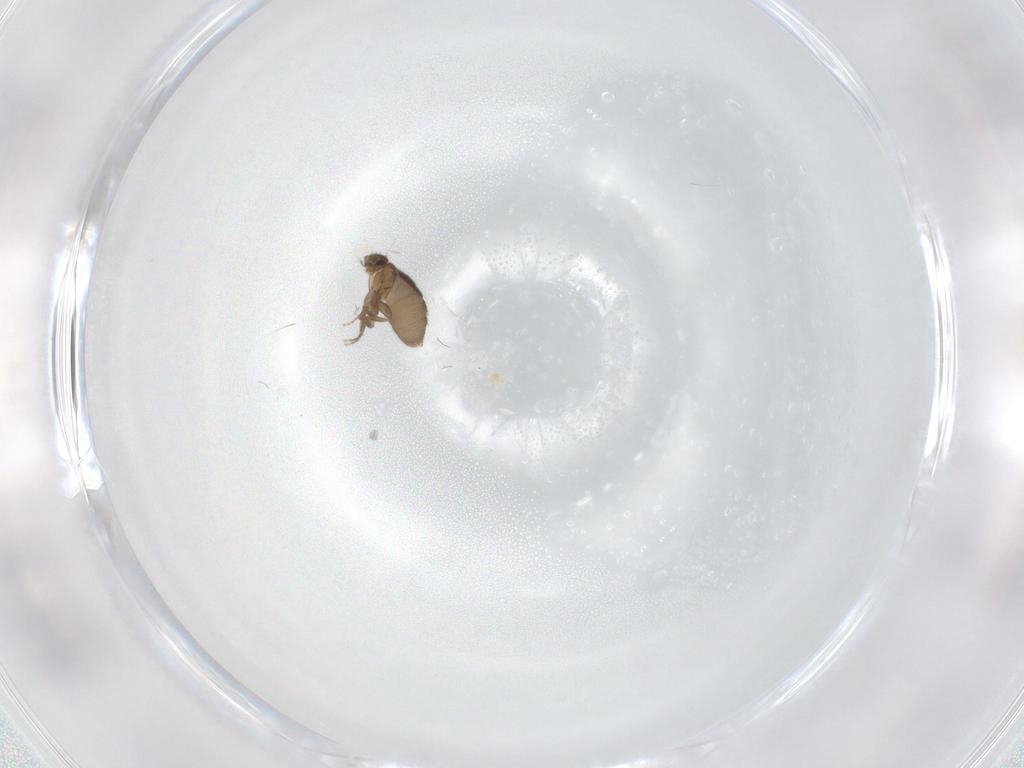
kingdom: Animalia
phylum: Arthropoda
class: Insecta
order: Diptera
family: Phoridae
